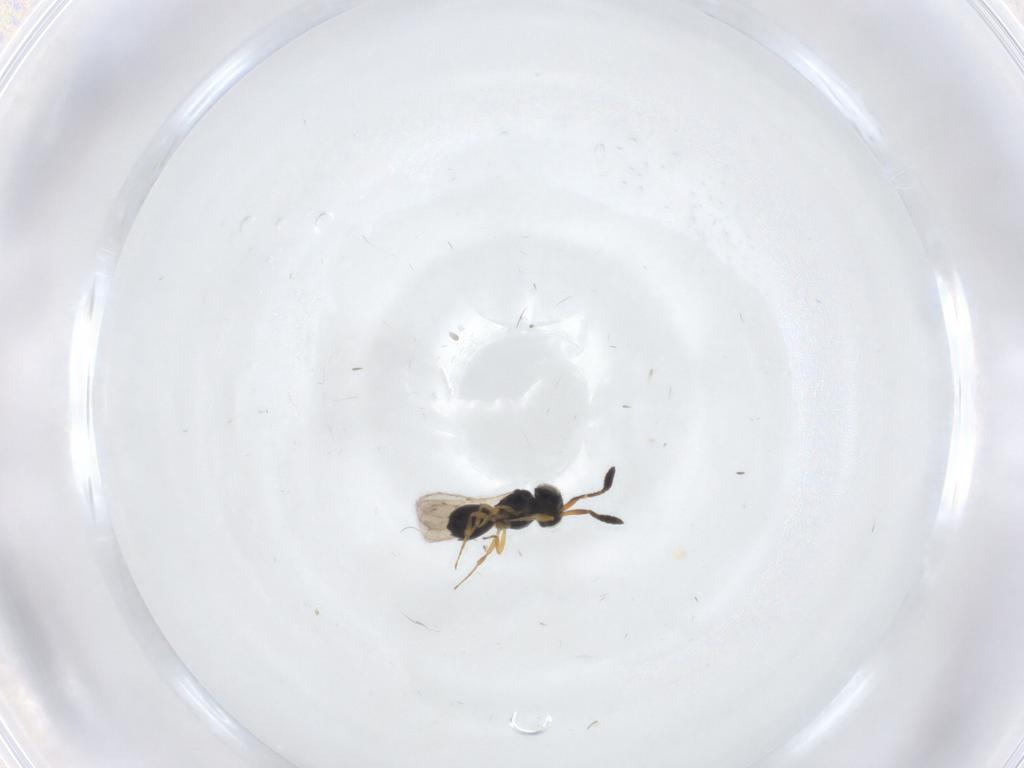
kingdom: Animalia
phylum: Arthropoda
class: Insecta
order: Hymenoptera
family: Scelionidae
